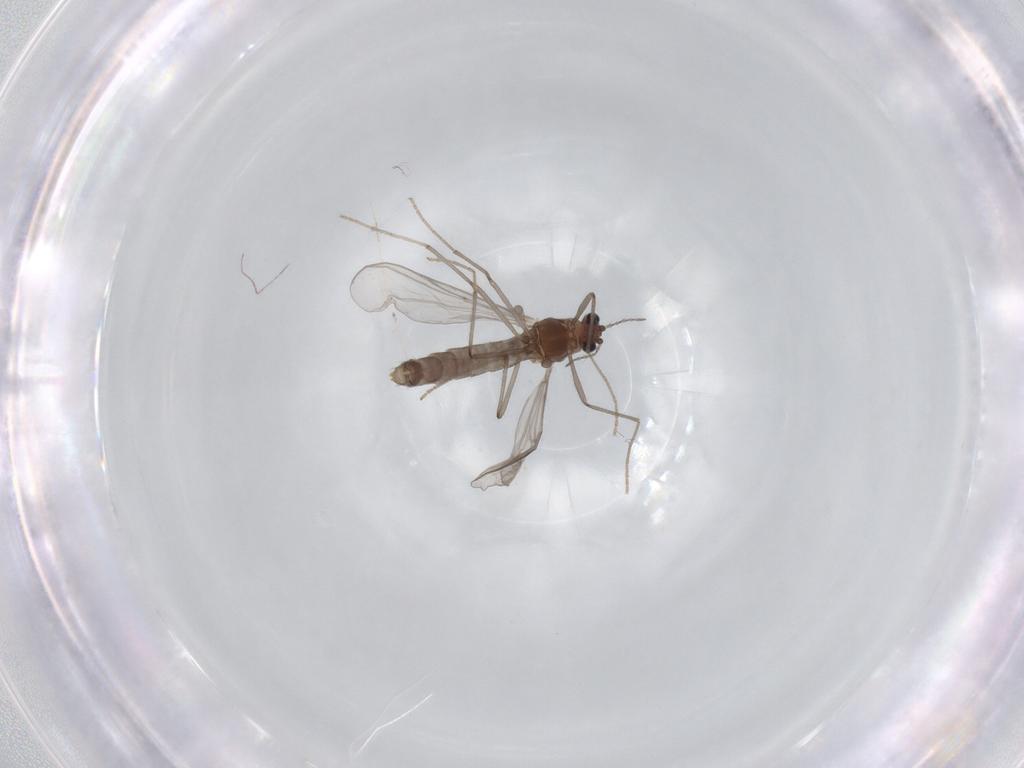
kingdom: Animalia
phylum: Arthropoda
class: Insecta
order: Diptera
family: Chironomidae
